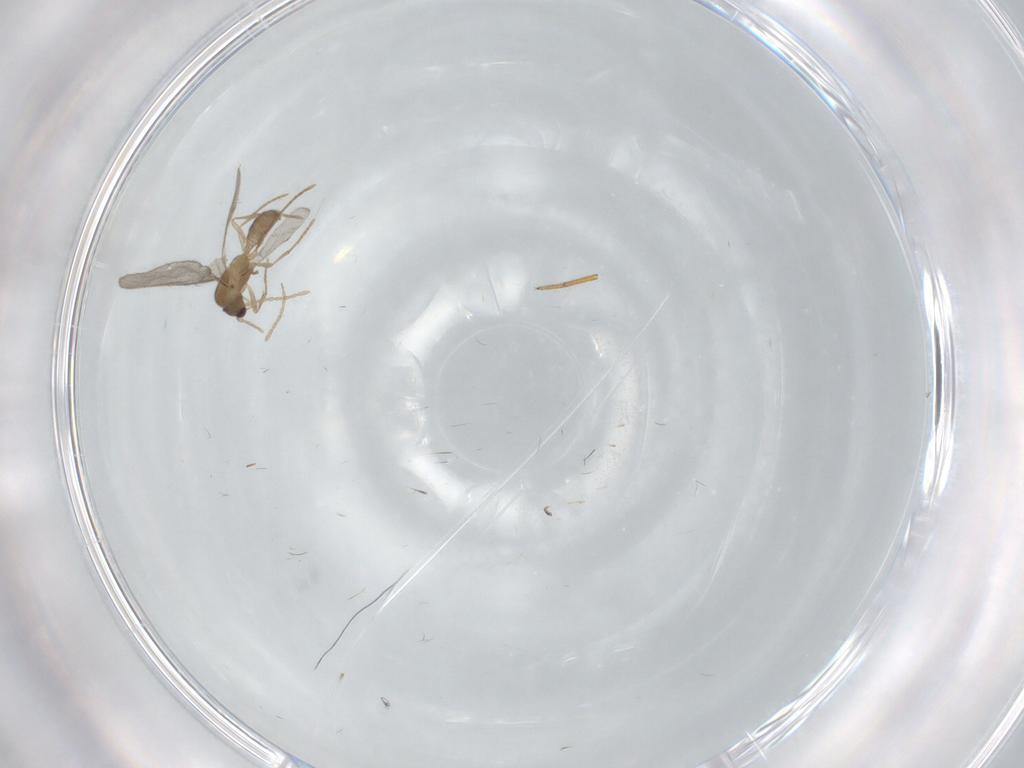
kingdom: Animalia
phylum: Arthropoda
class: Insecta
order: Hymenoptera
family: Formicidae
